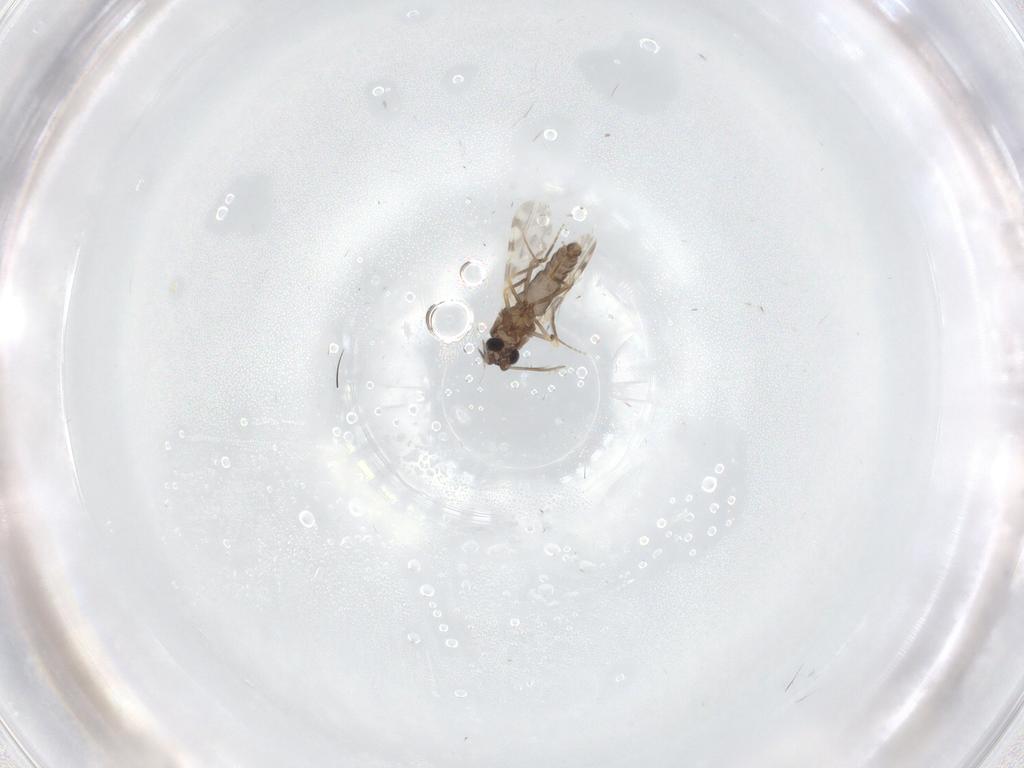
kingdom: Animalia
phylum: Arthropoda
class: Insecta
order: Diptera
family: Ceratopogonidae
